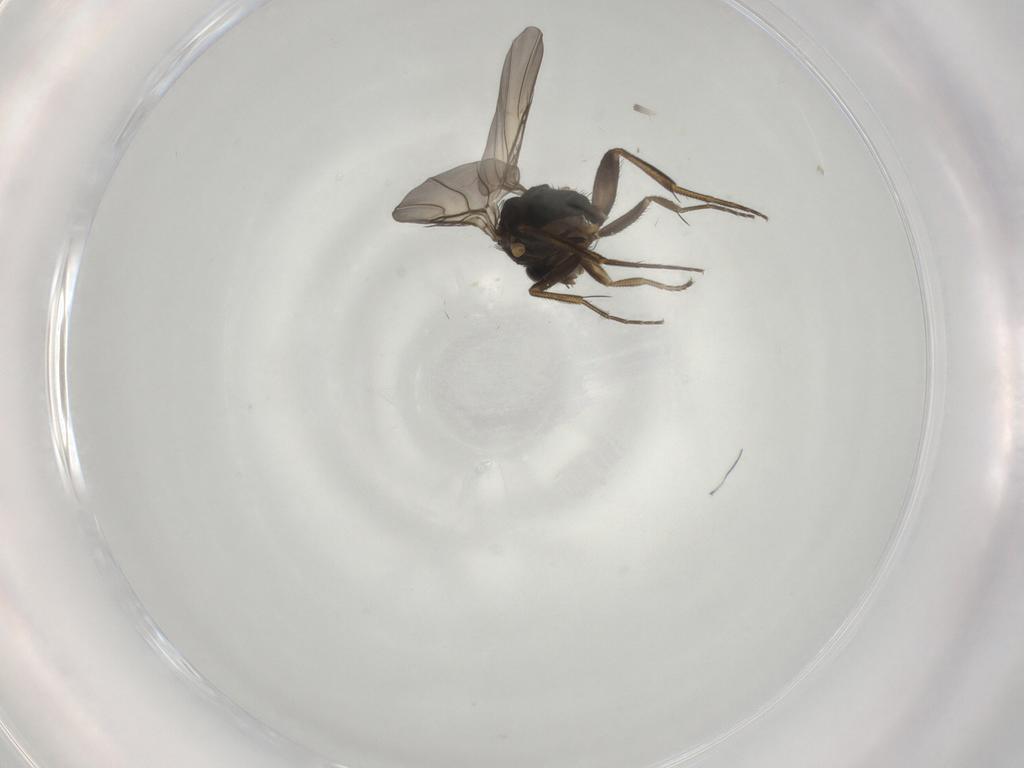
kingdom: Animalia
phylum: Arthropoda
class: Insecta
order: Diptera
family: Phoridae
